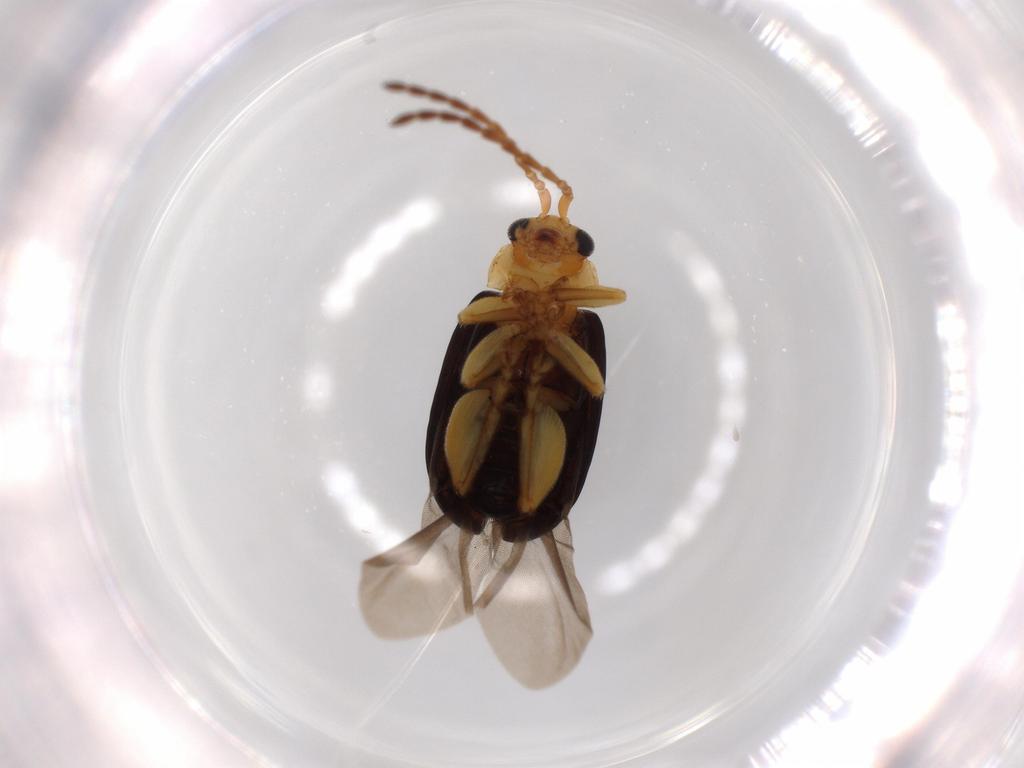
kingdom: Animalia
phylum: Arthropoda
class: Insecta
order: Coleoptera
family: Chrysomelidae
